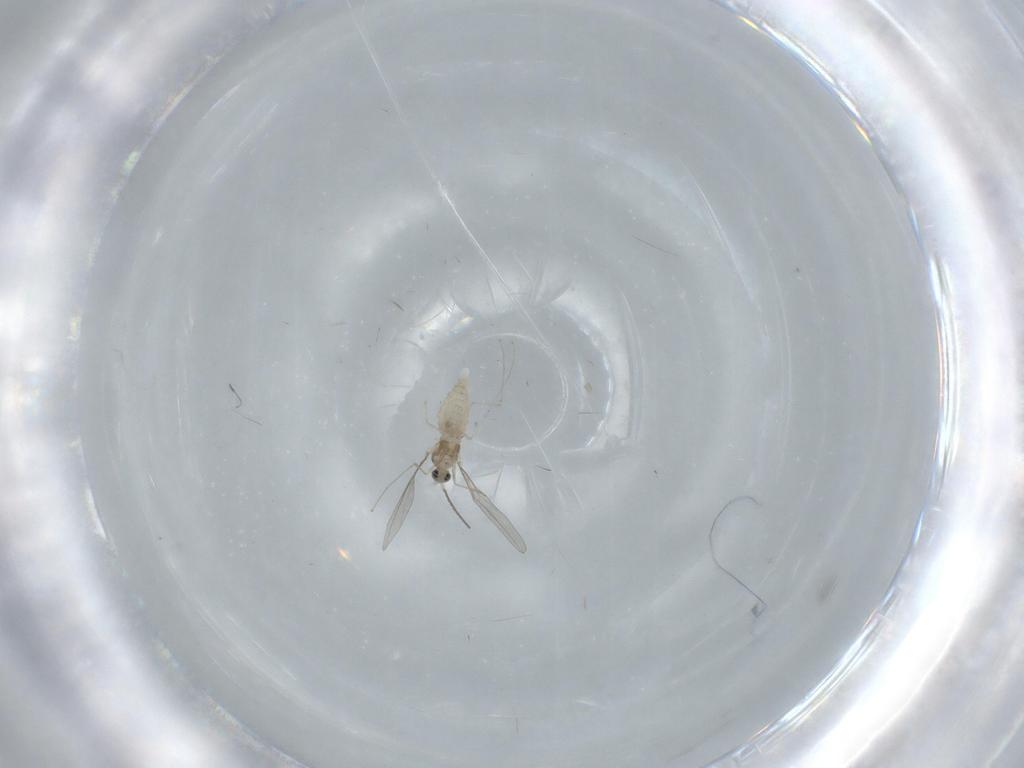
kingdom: Animalia
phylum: Arthropoda
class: Insecta
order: Diptera
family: Cecidomyiidae
